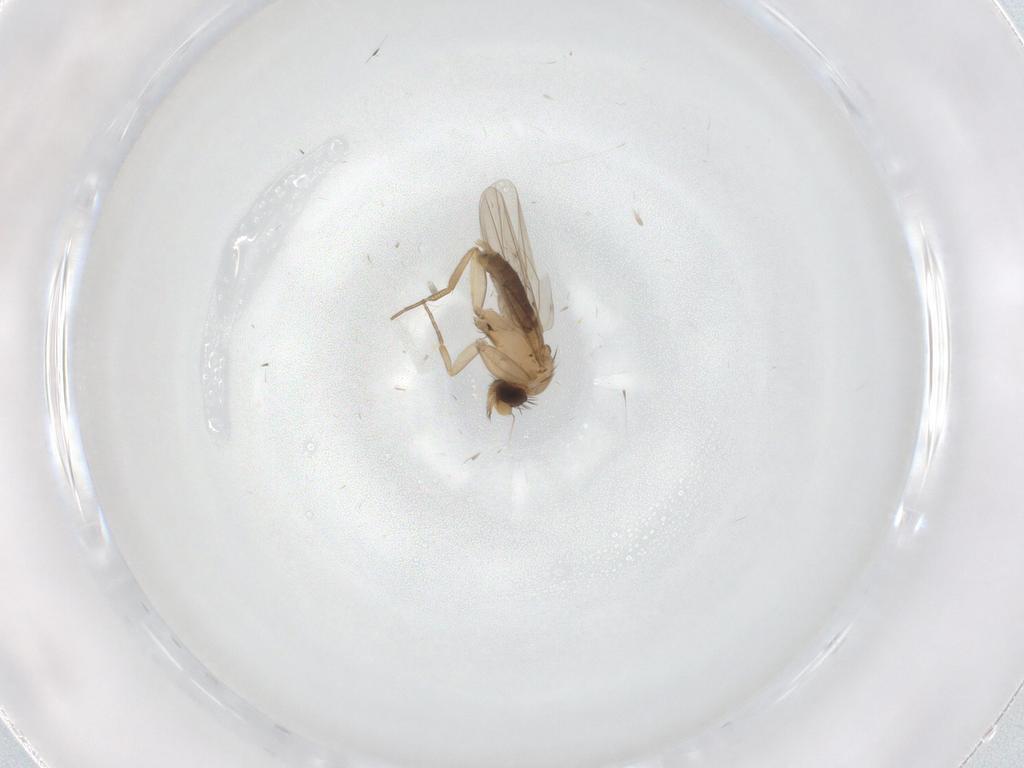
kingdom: Animalia
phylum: Arthropoda
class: Insecta
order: Diptera
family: Phoridae
